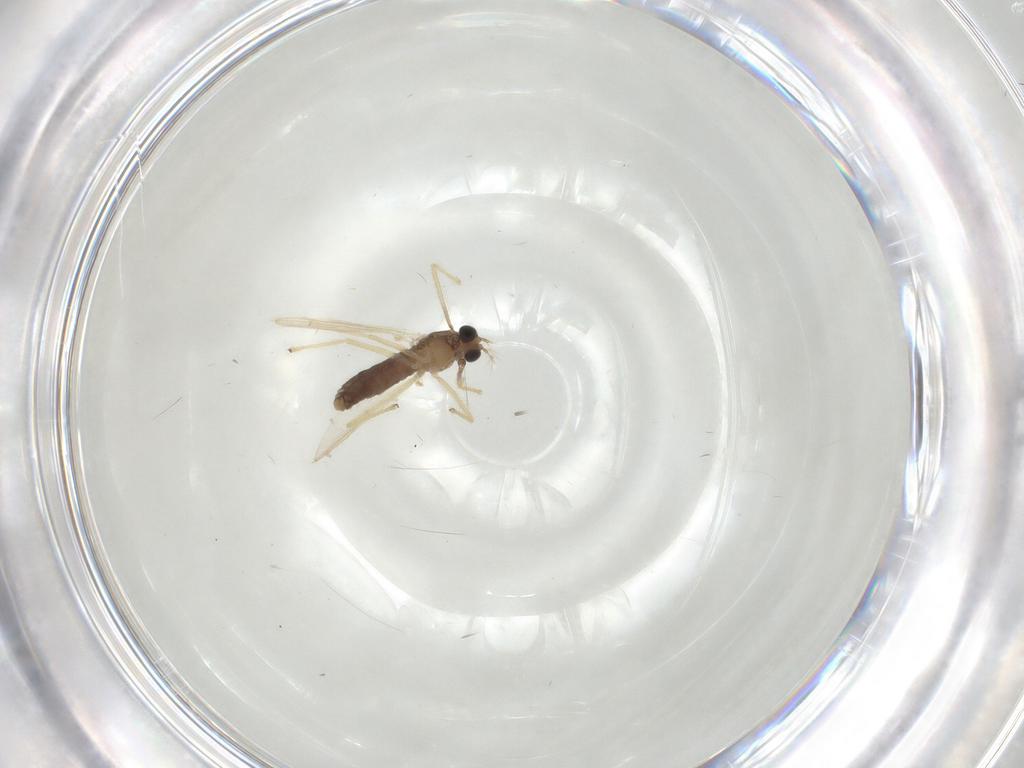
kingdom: Animalia
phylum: Arthropoda
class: Insecta
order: Diptera
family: Chironomidae
